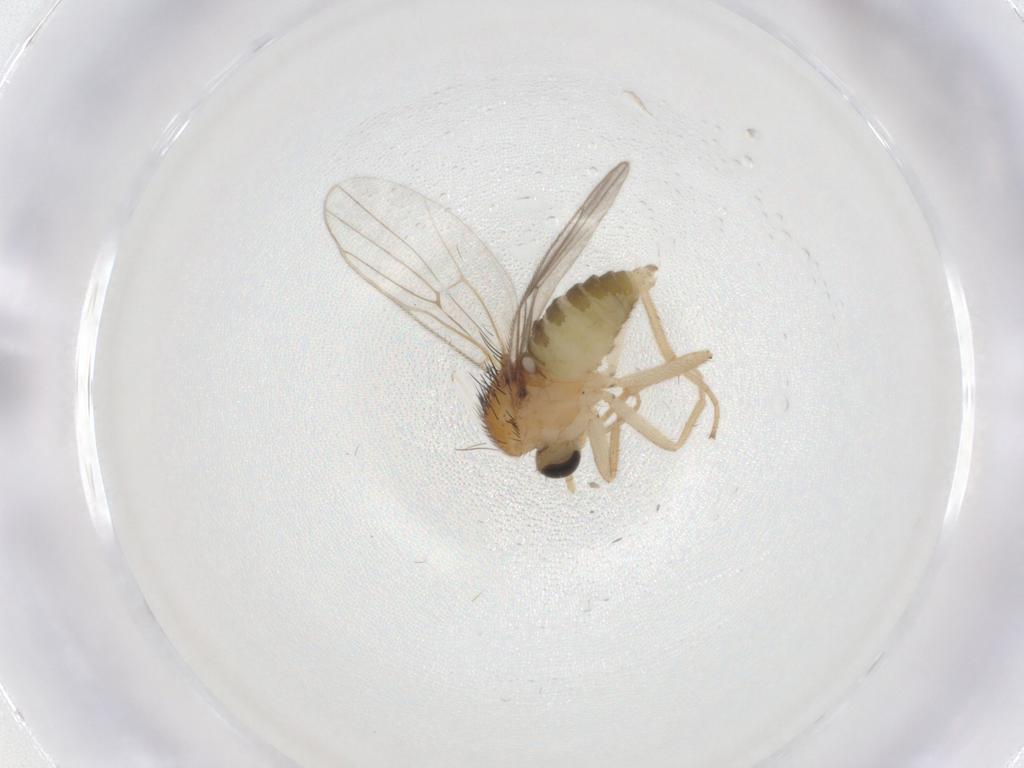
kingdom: Animalia
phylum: Arthropoda
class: Insecta
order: Diptera
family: Hybotidae
